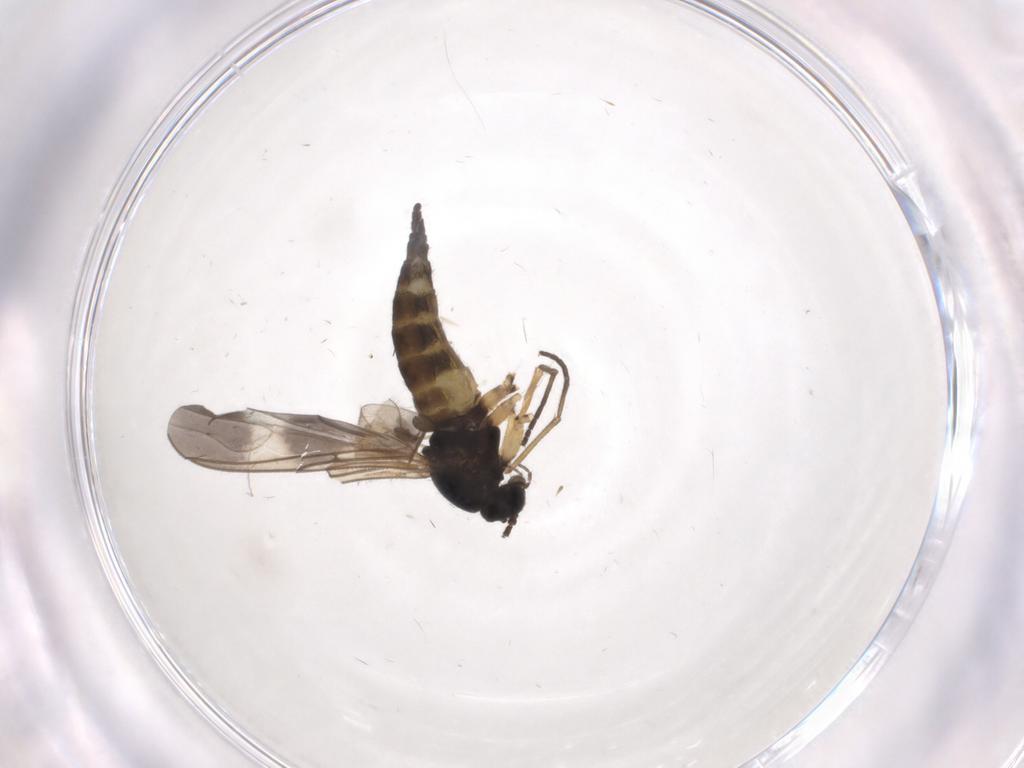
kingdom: Animalia
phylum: Arthropoda
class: Insecta
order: Diptera
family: Sciaridae
